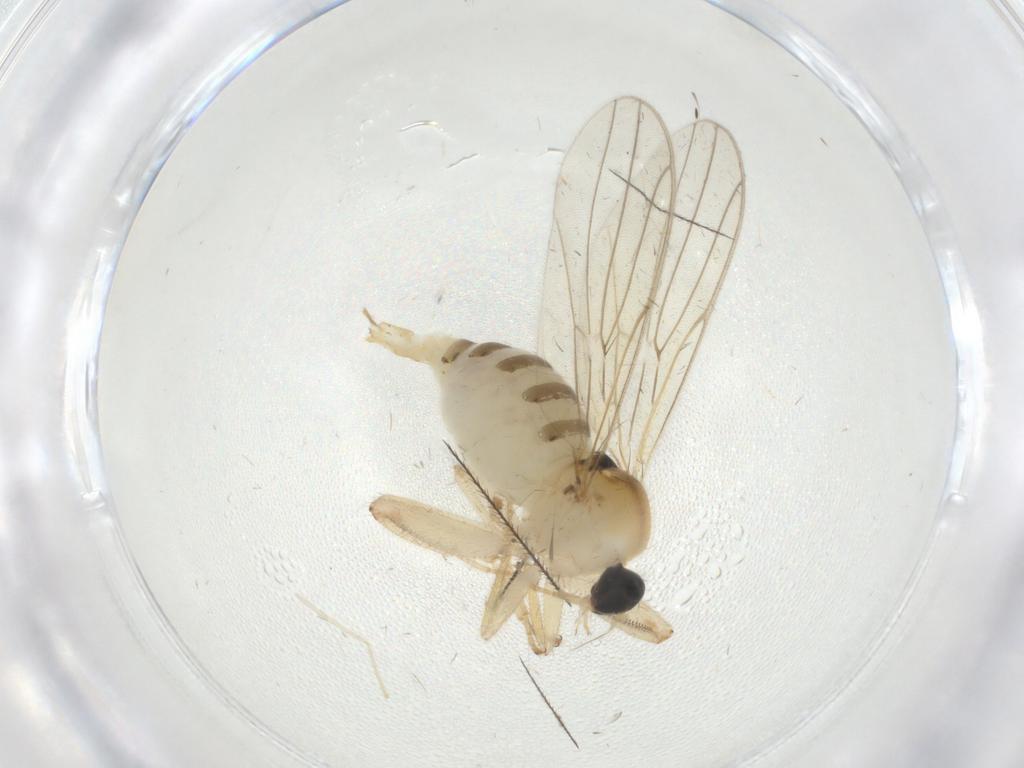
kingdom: Animalia
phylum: Arthropoda
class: Insecta
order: Diptera
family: Hybotidae
